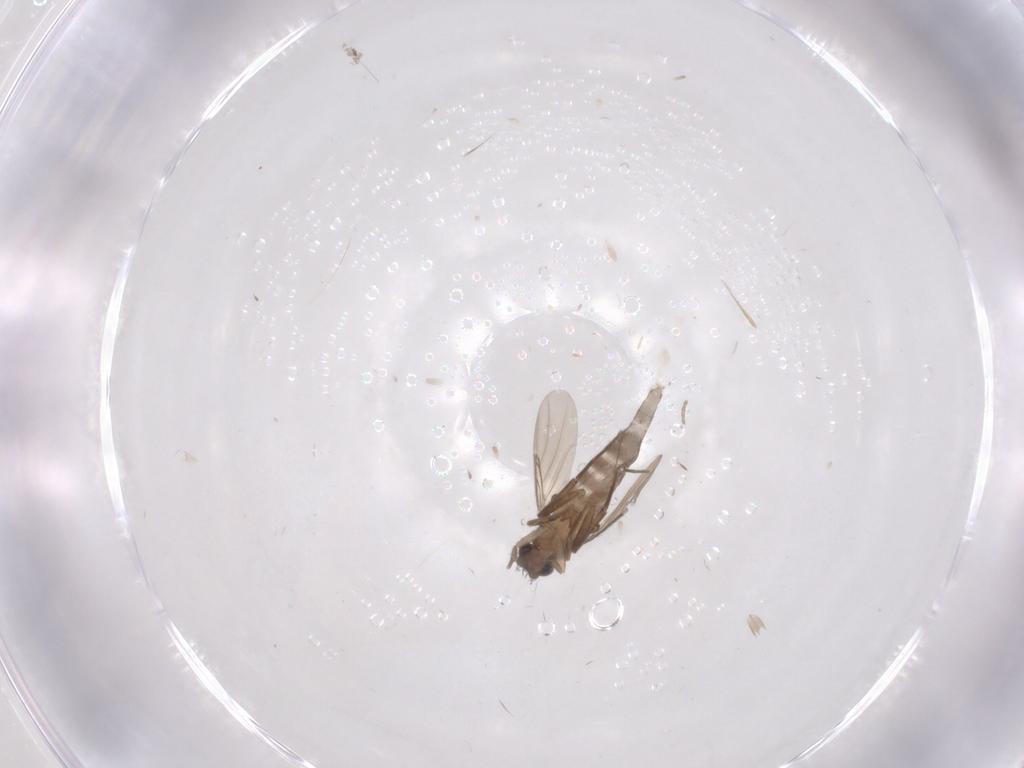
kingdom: Animalia
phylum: Arthropoda
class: Insecta
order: Diptera
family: Phoridae
